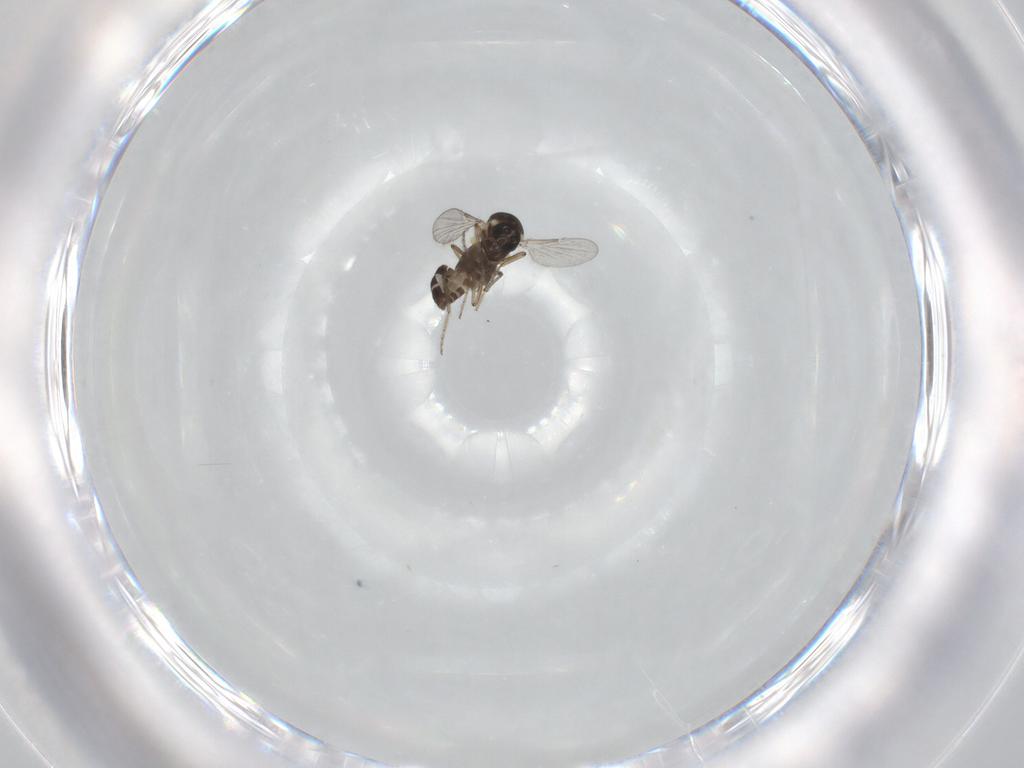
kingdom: Animalia
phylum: Arthropoda
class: Insecta
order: Diptera
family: Ceratopogonidae
